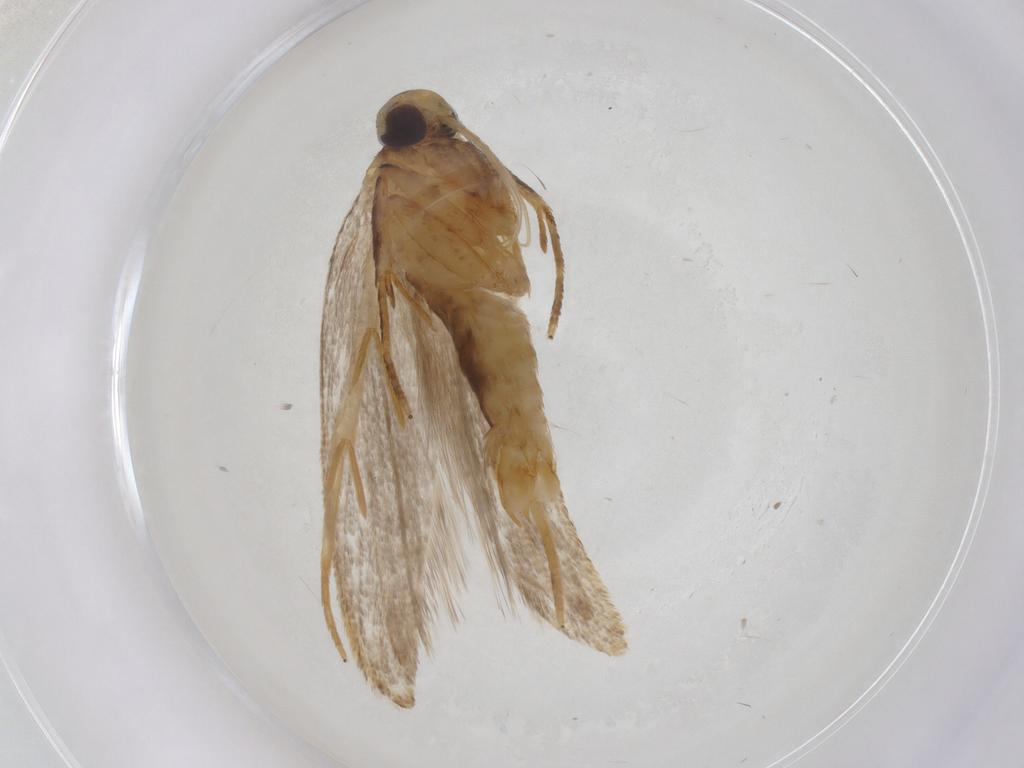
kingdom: Animalia
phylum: Arthropoda
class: Insecta
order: Lepidoptera
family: Oecophoridae
